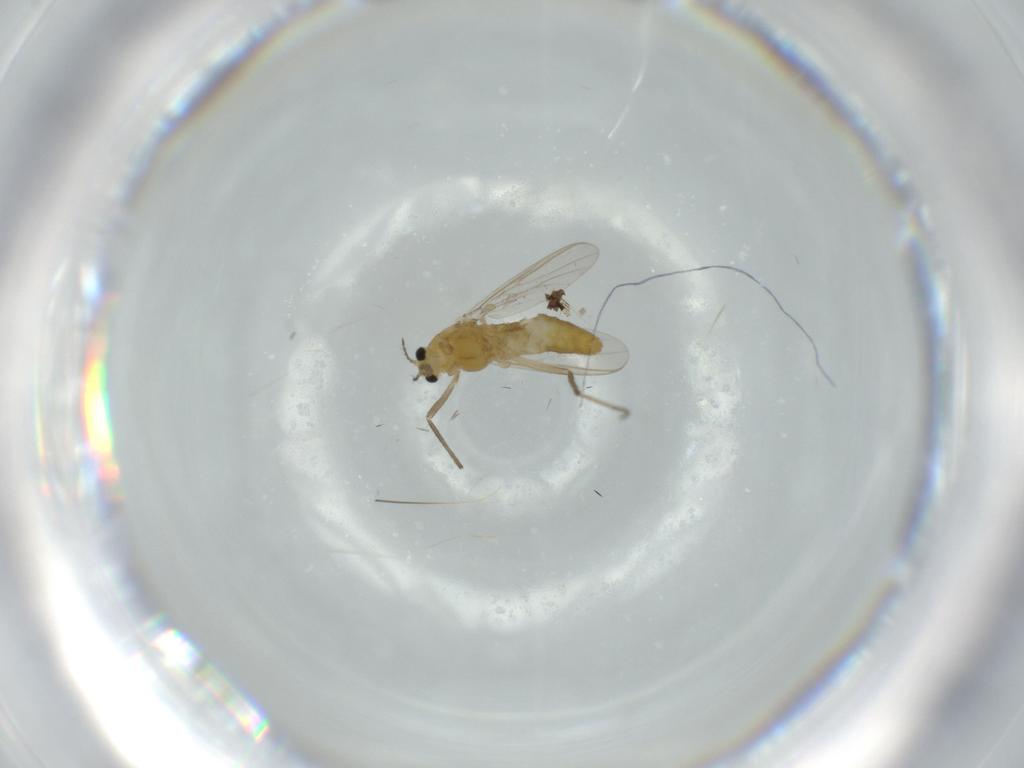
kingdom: Animalia
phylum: Arthropoda
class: Insecta
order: Diptera
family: Chironomidae
